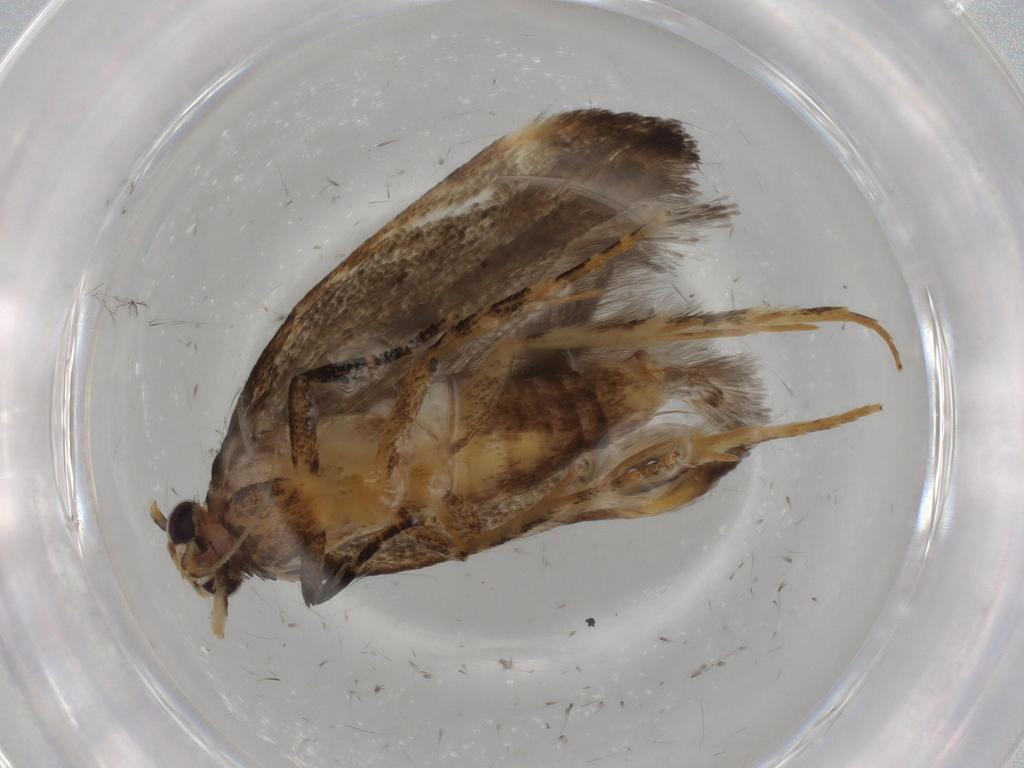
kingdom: Animalia
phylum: Arthropoda
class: Insecta
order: Lepidoptera
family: Gelechiidae
